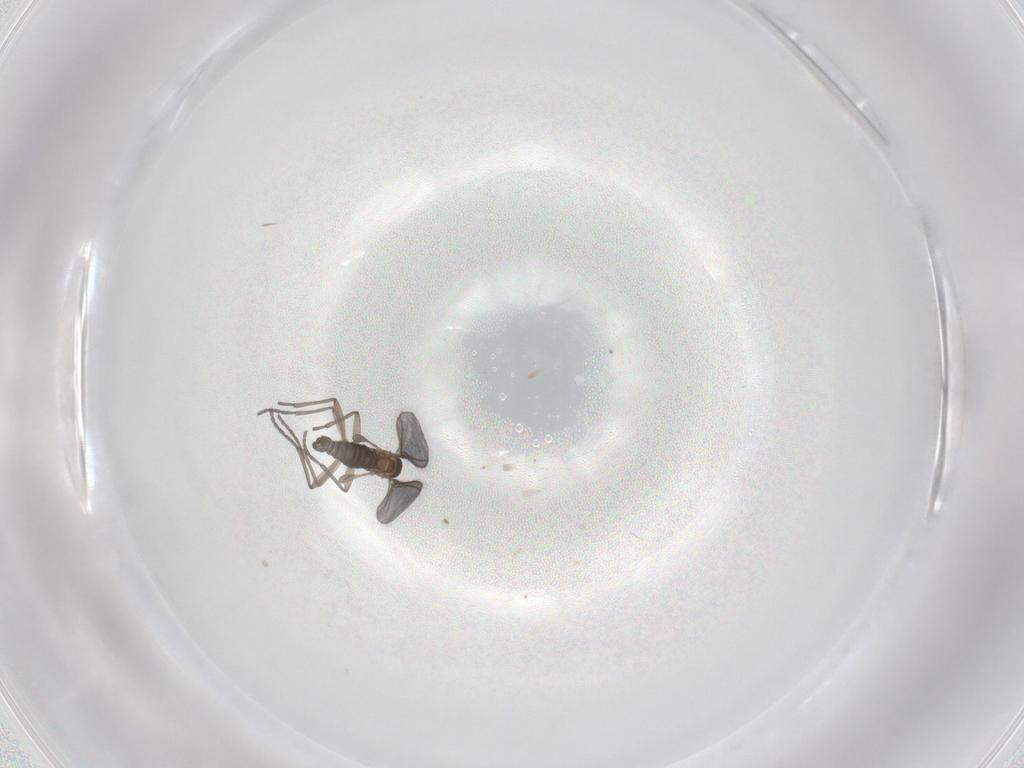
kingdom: Animalia
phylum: Arthropoda
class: Insecta
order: Diptera
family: Sciaridae
